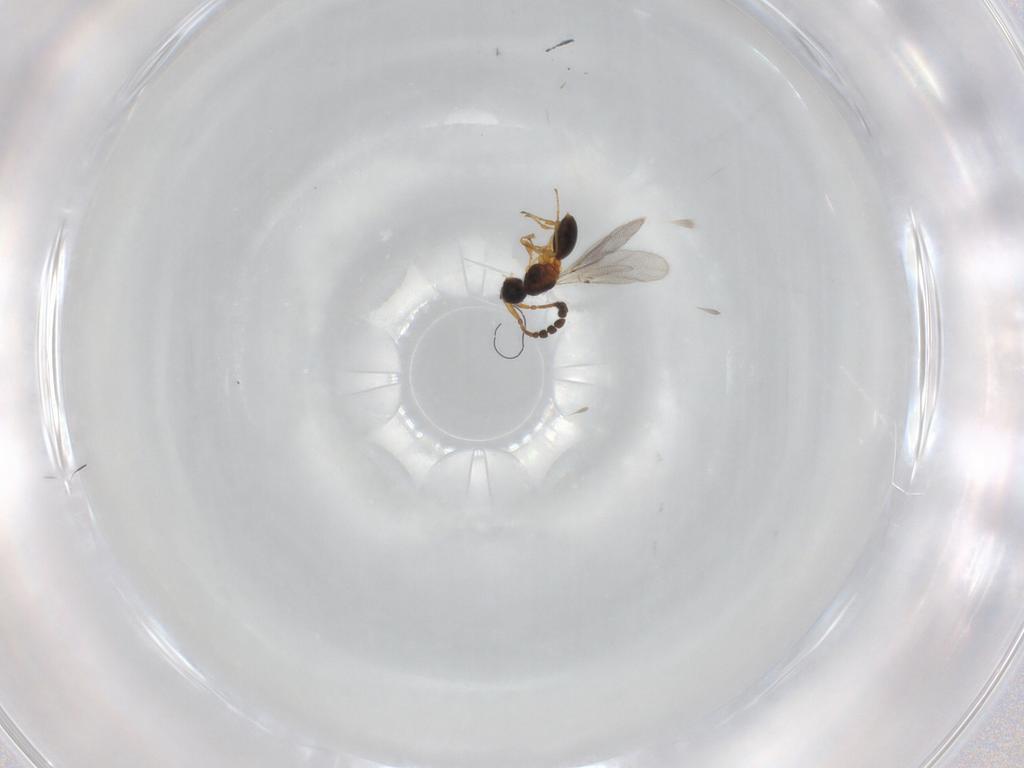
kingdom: Animalia
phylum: Arthropoda
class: Insecta
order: Hymenoptera
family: Diapriidae
